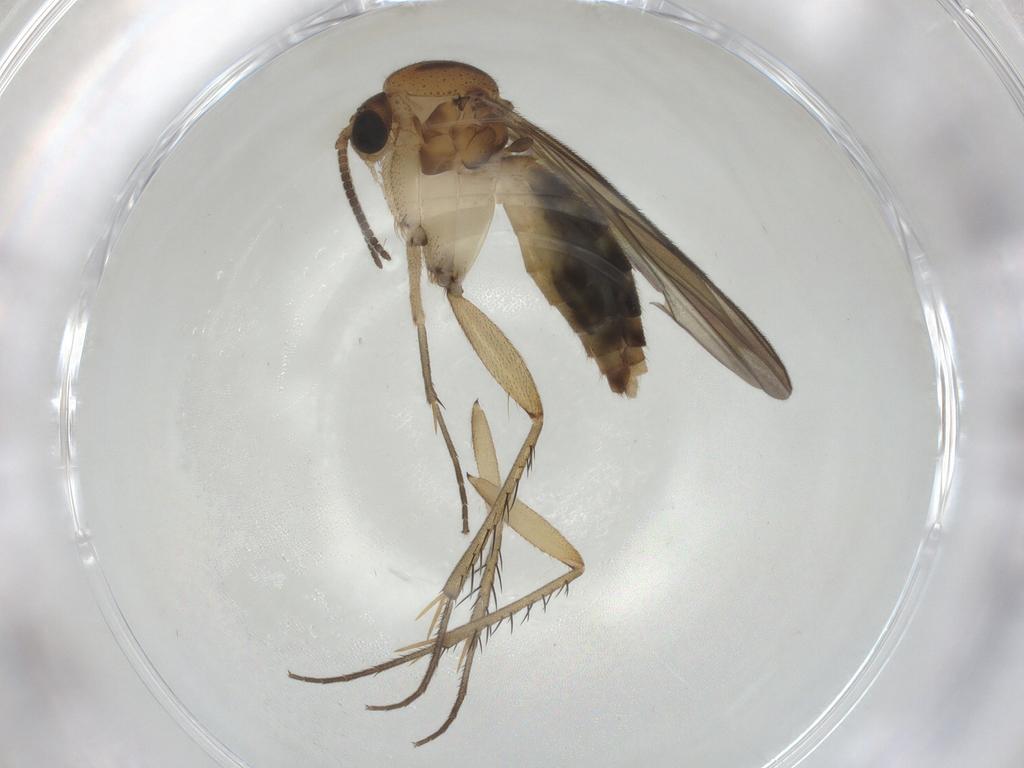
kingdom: Animalia
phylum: Arthropoda
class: Insecta
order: Diptera
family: Mycetophilidae
